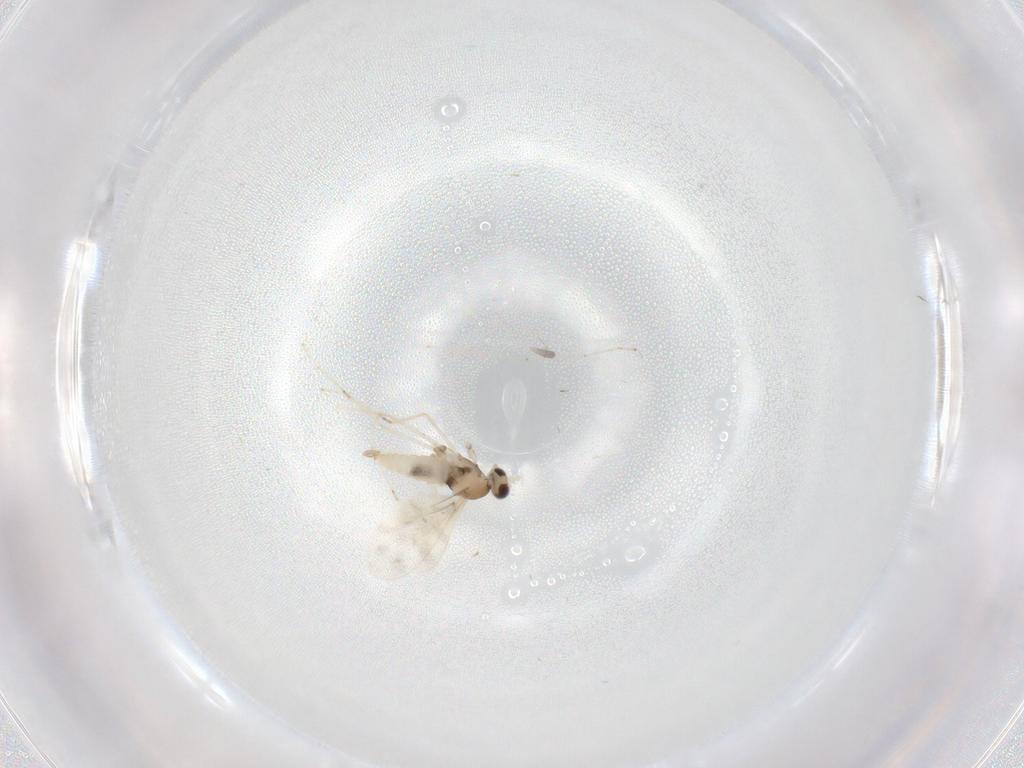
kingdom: Animalia
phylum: Arthropoda
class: Insecta
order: Diptera
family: Cecidomyiidae
